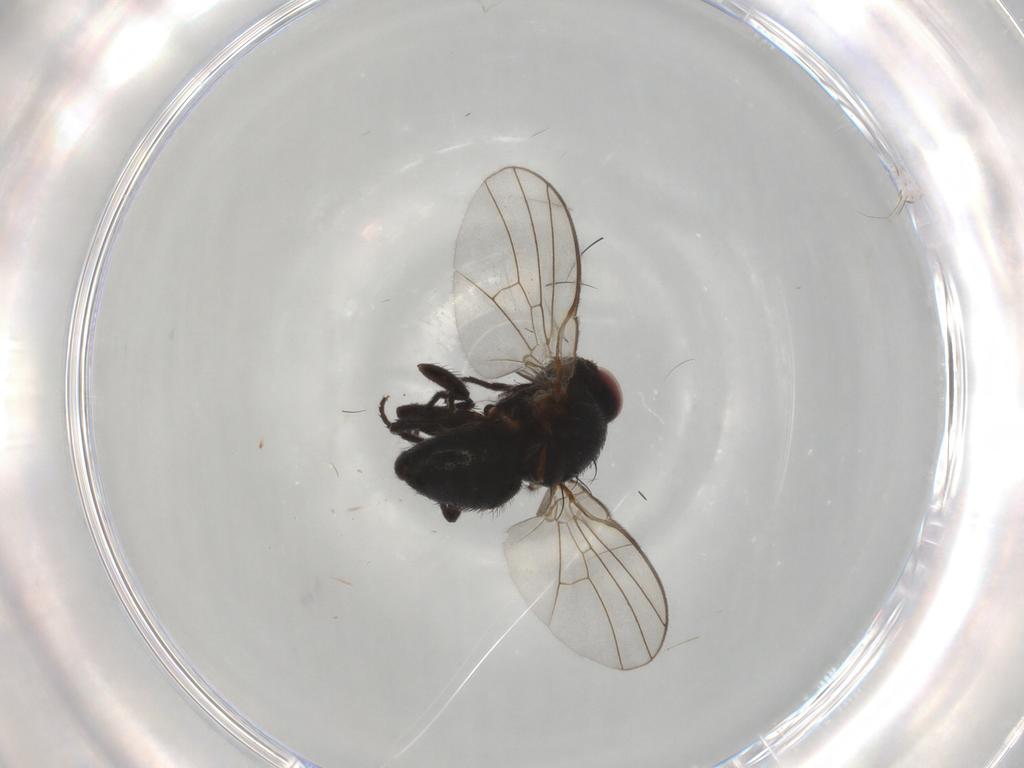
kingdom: Animalia
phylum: Arthropoda
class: Insecta
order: Diptera
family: Agromyzidae
